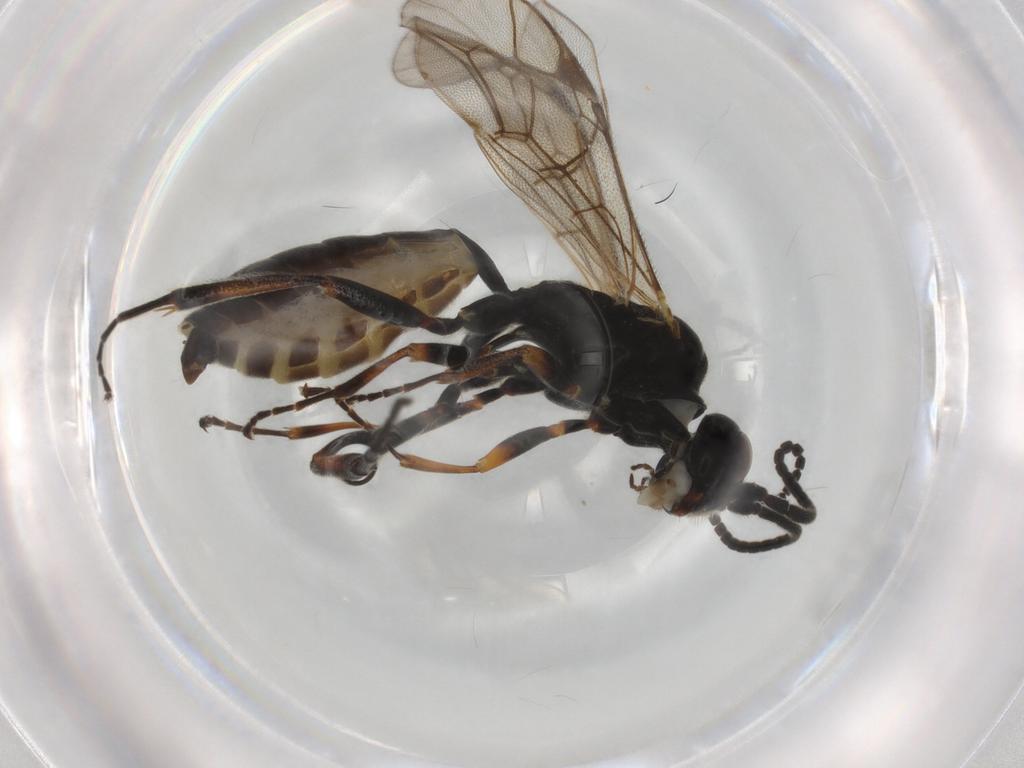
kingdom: Animalia
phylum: Arthropoda
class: Insecta
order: Hymenoptera
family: Ichneumonidae
